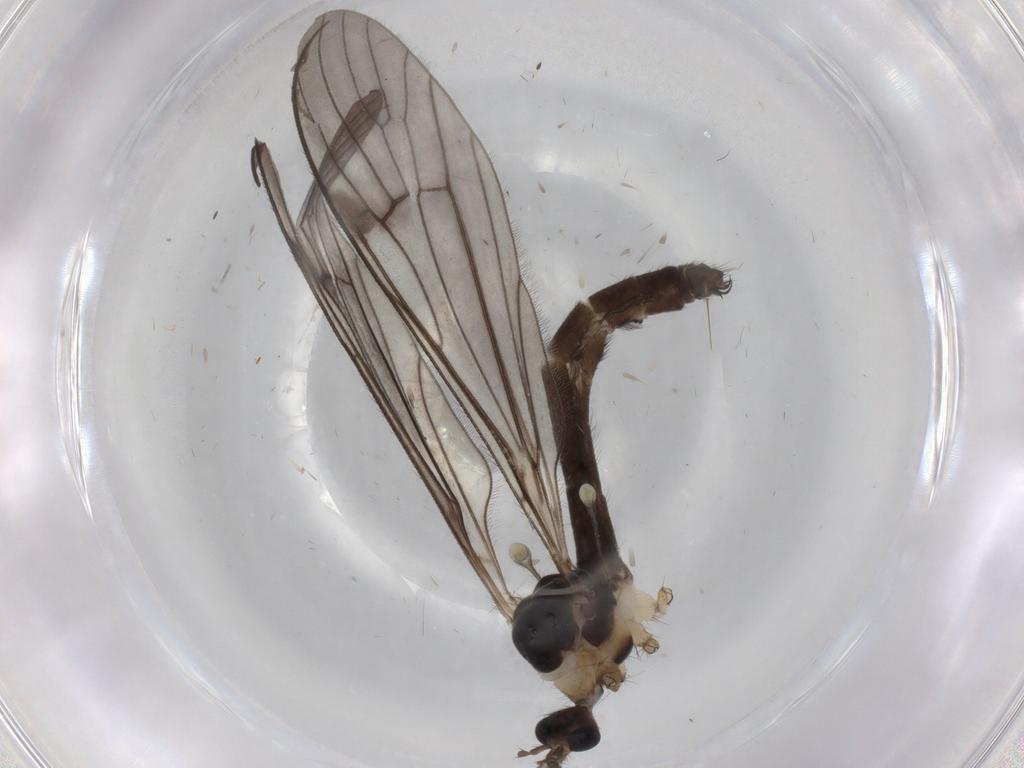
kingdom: Animalia
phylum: Arthropoda
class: Insecta
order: Diptera
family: Sciaridae
